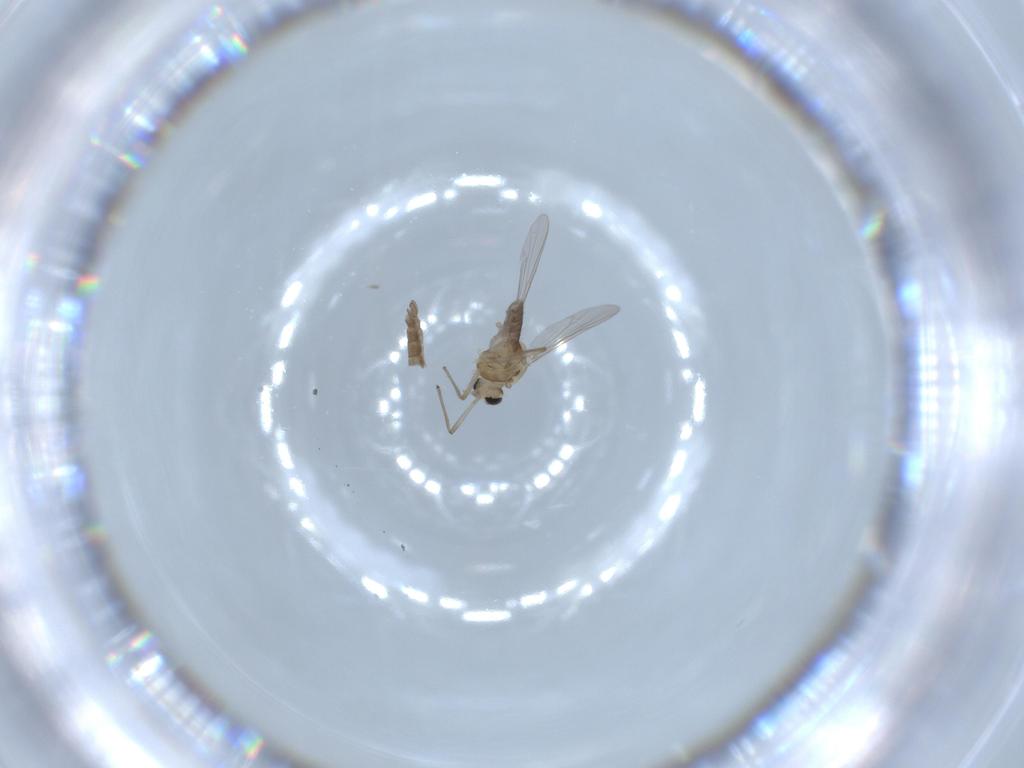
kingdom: Animalia
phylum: Arthropoda
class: Insecta
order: Diptera
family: Chironomidae
